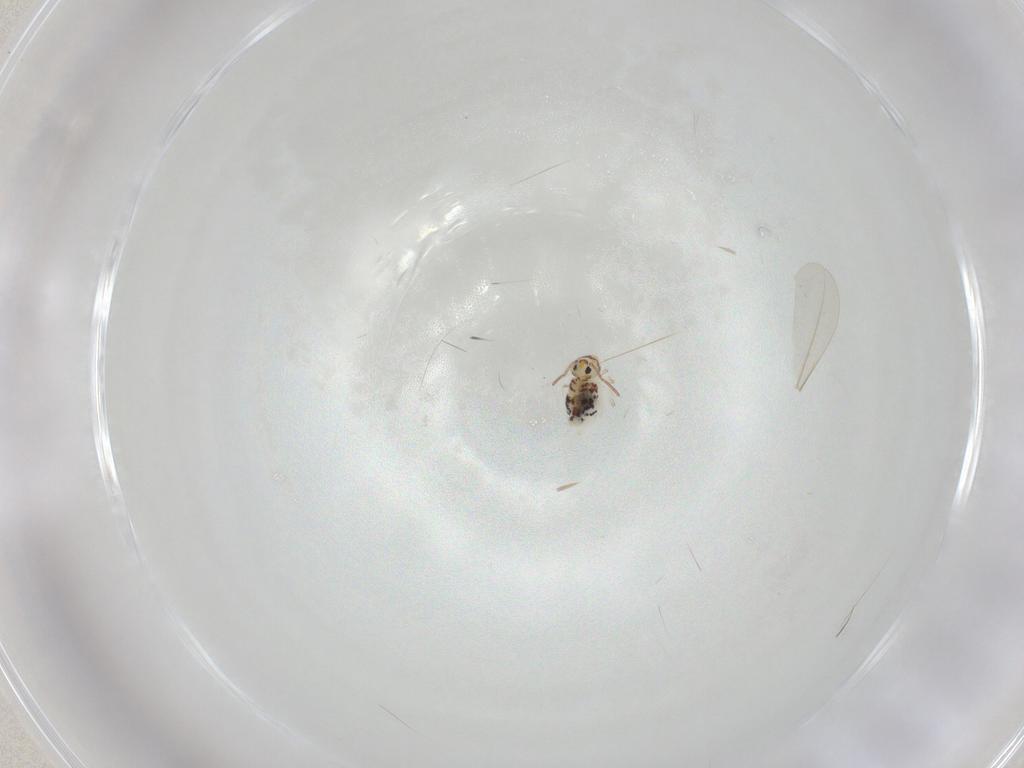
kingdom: Animalia
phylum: Arthropoda
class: Collembola
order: Symphypleona
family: Bourletiellidae
